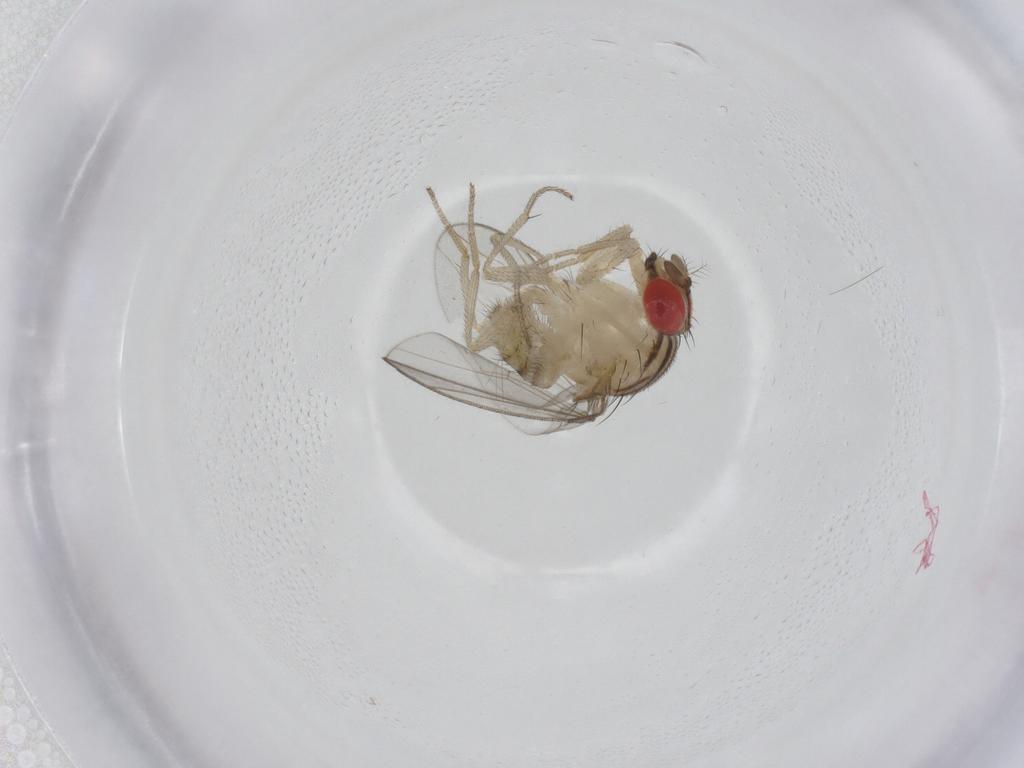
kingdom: Animalia
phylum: Arthropoda
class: Insecta
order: Diptera
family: Drosophilidae
